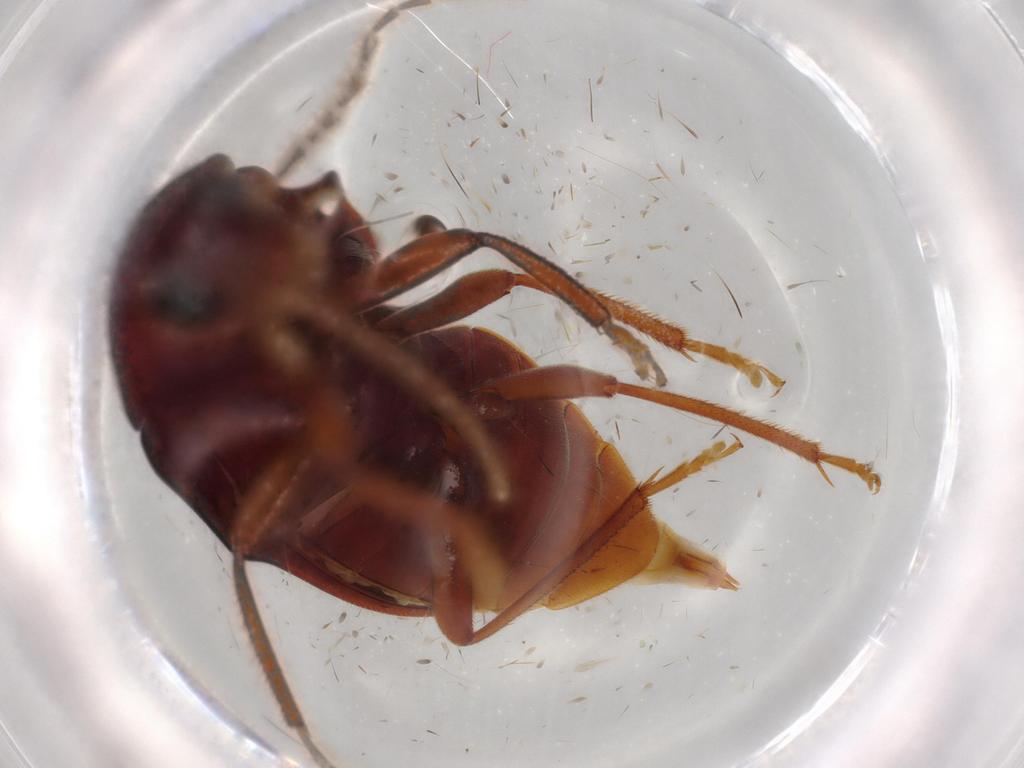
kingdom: Animalia
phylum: Arthropoda
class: Insecta
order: Coleoptera
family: Ptilodactylidae
